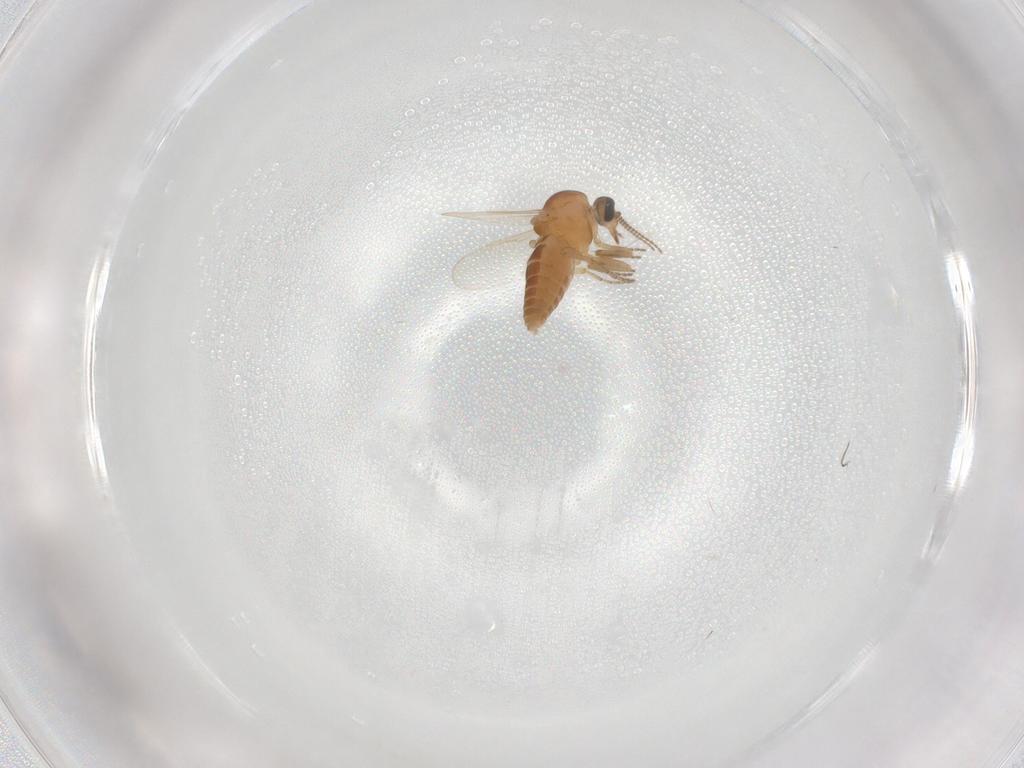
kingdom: Animalia
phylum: Arthropoda
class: Insecta
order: Diptera
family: Ceratopogonidae
